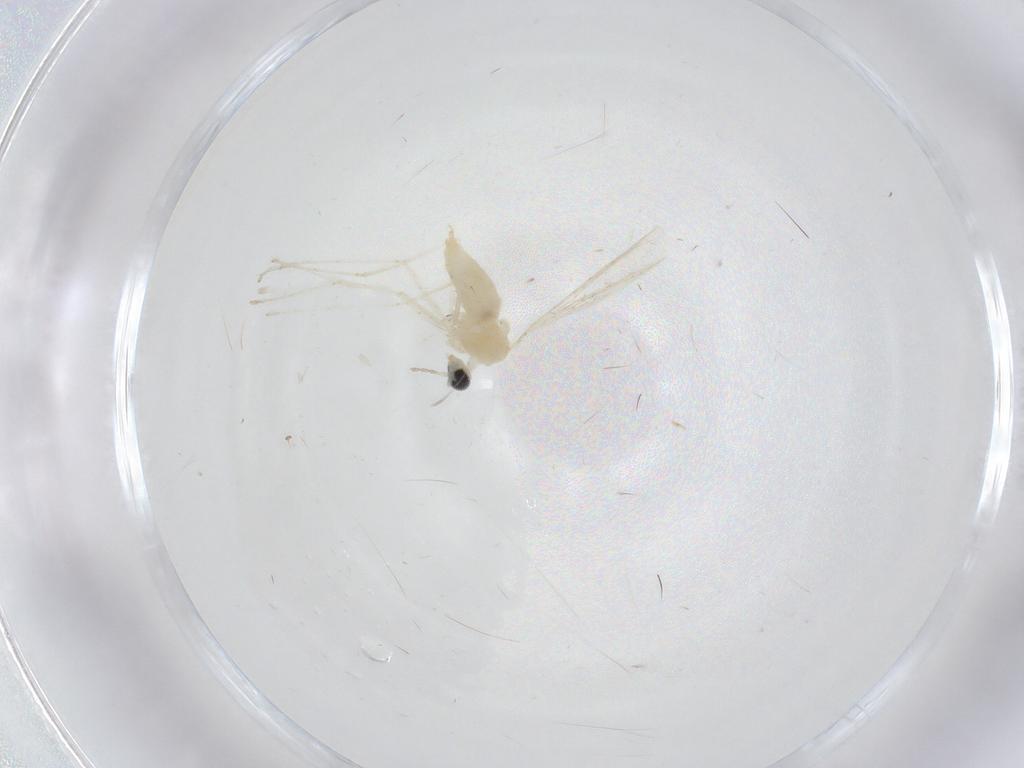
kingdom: Animalia
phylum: Arthropoda
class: Insecta
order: Diptera
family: Cecidomyiidae
